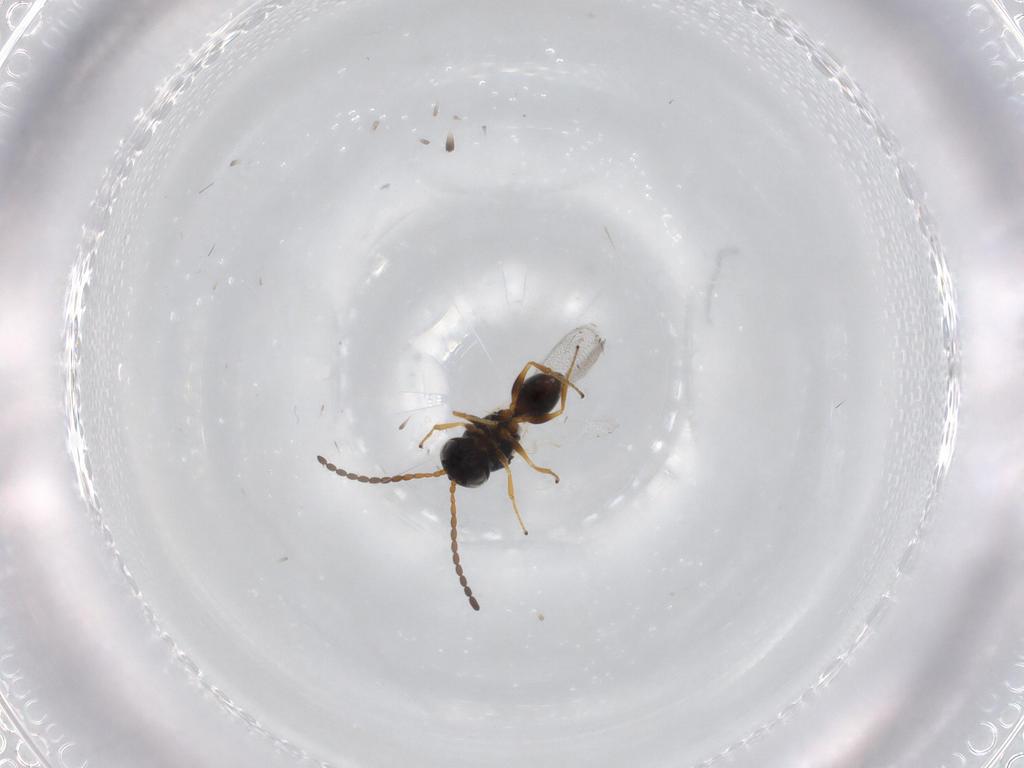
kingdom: Animalia
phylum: Arthropoda
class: Insecta
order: Hymenoptera
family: Figitidae
